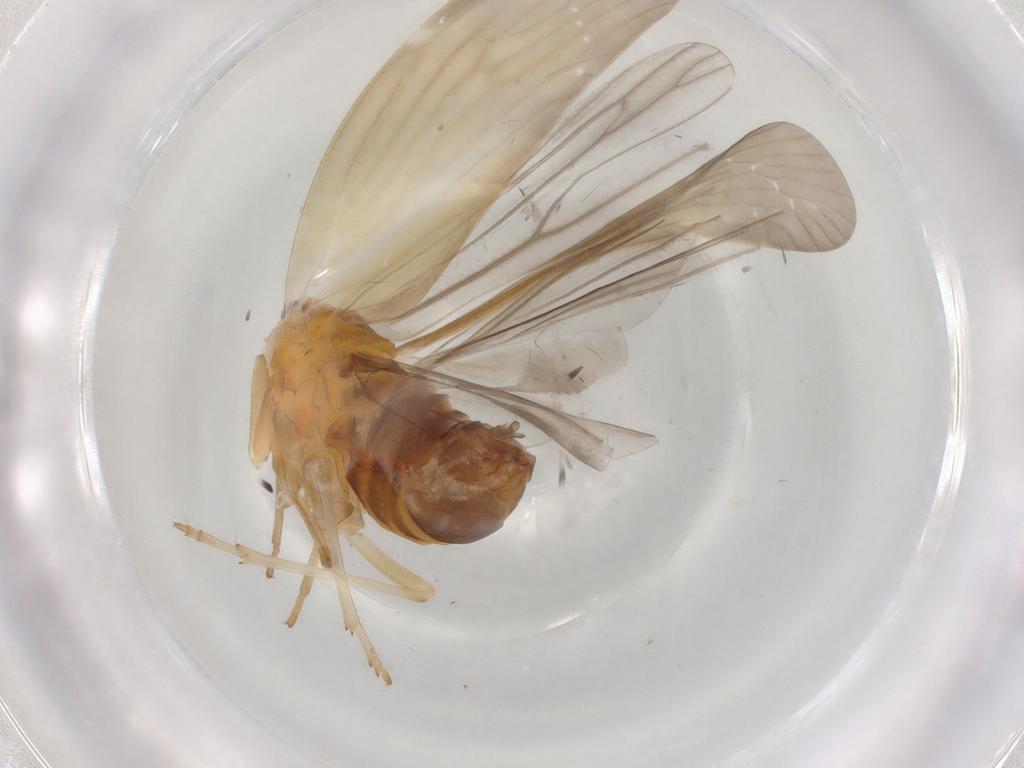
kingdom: Animalia
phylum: Arthropoda
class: Insecta
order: Hemiptera
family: Derbidae
